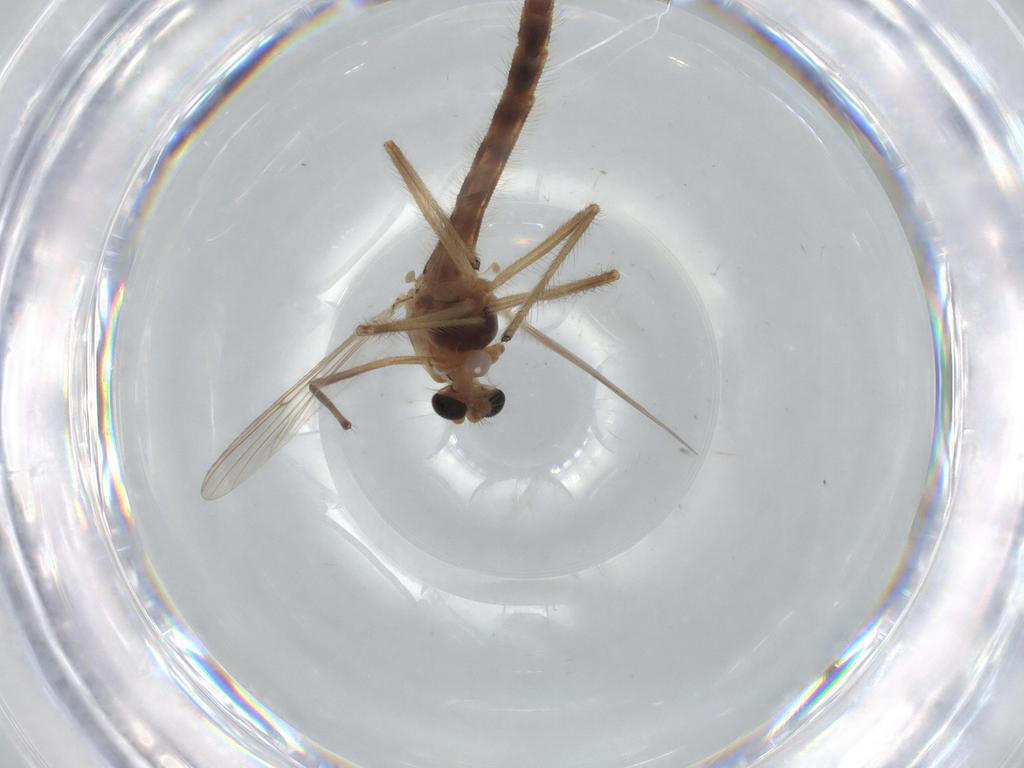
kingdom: Animalia
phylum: Arthropoda
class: Insecta
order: Diptera
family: Chironomidae
